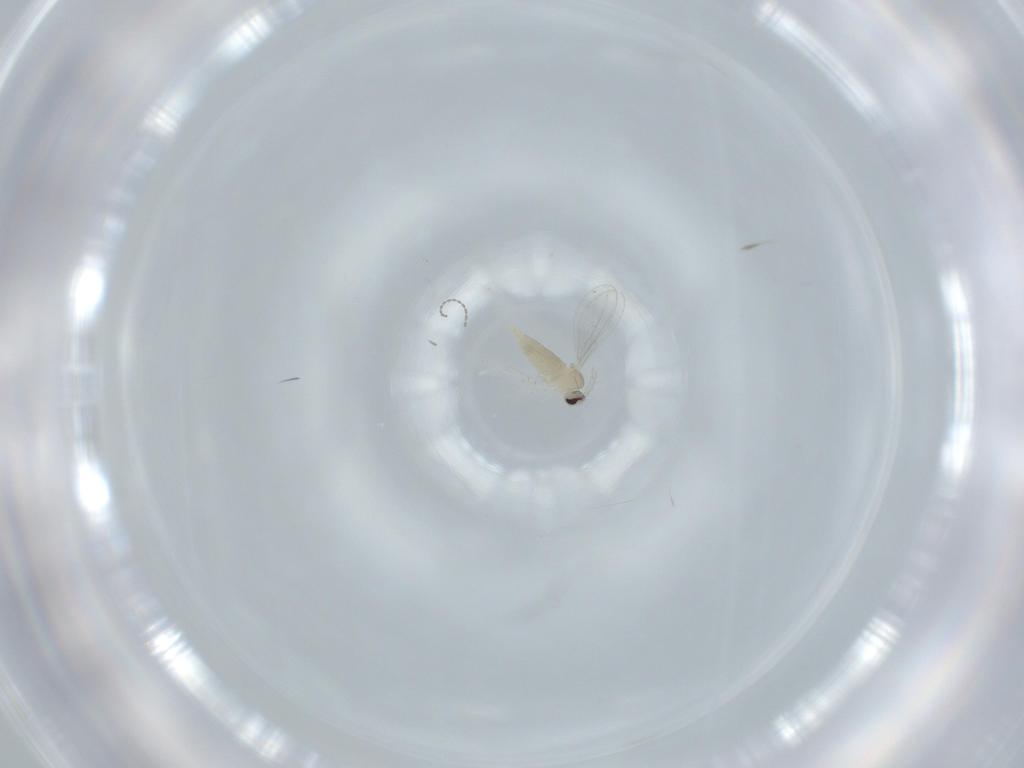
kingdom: Animalia
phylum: Arthropoda
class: Insecta
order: Diptera
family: Cecidomyiidae
